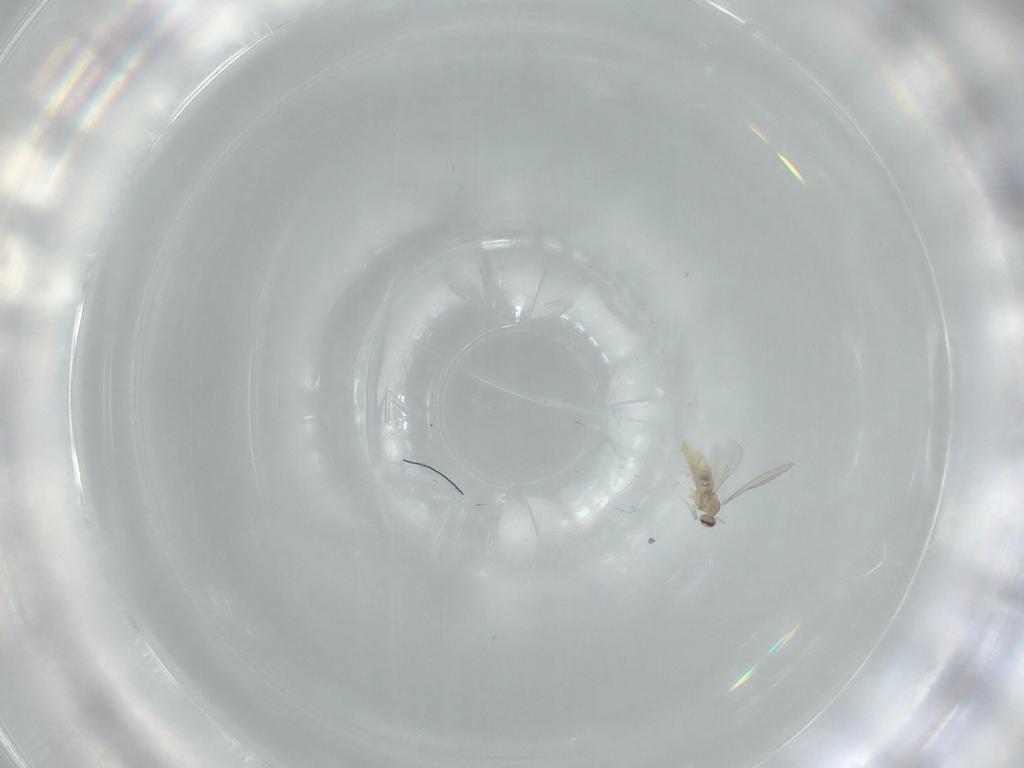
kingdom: Animalia
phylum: Arthropoda
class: Insecta
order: Diptera
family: Cecidomyiidae
